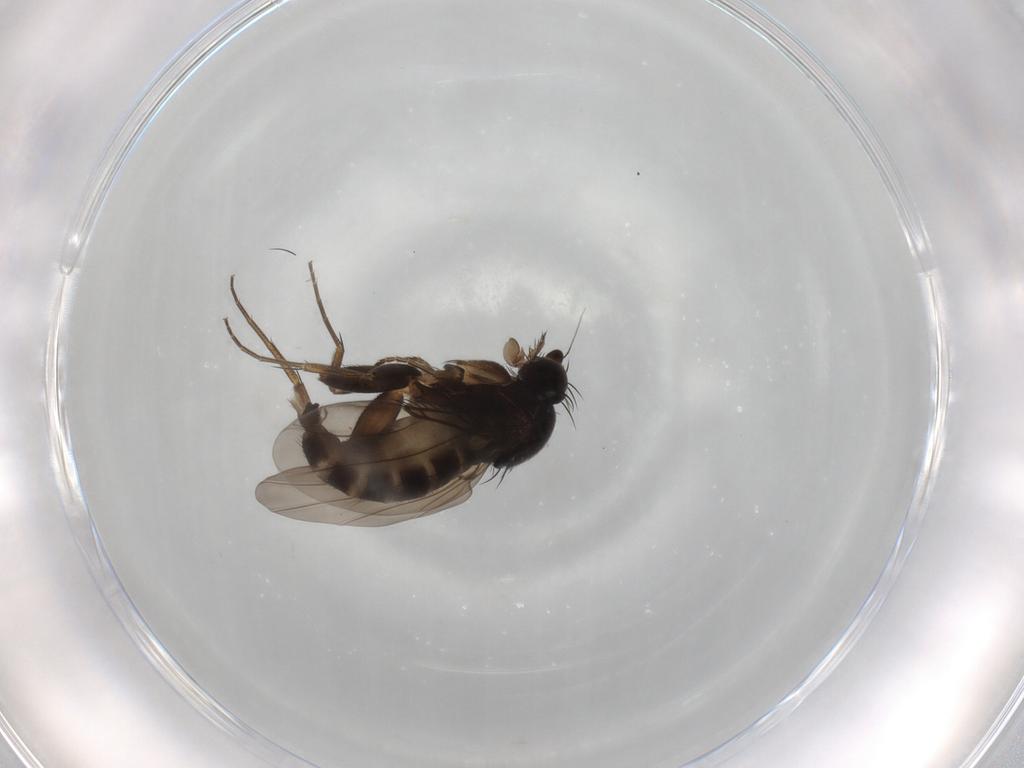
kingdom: Animalia
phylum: Arthropoda
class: Insecta
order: Diptera
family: Phoridae
